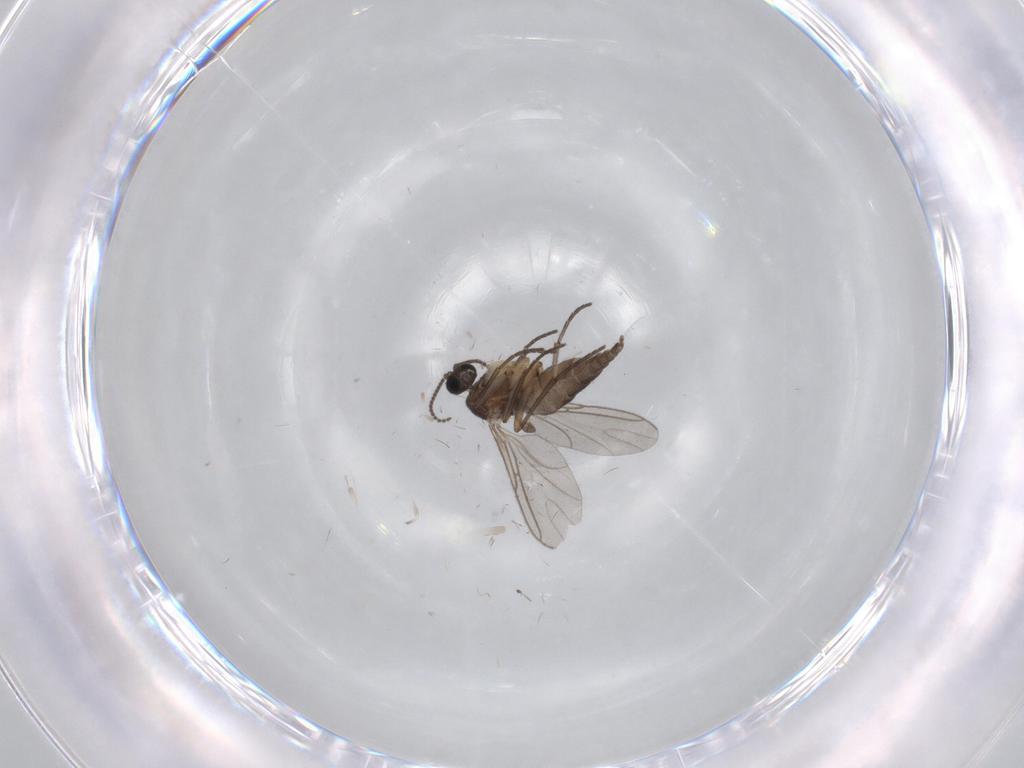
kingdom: Animalia
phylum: Arthropoda
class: Insecta
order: Diptera
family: Sciaridae
